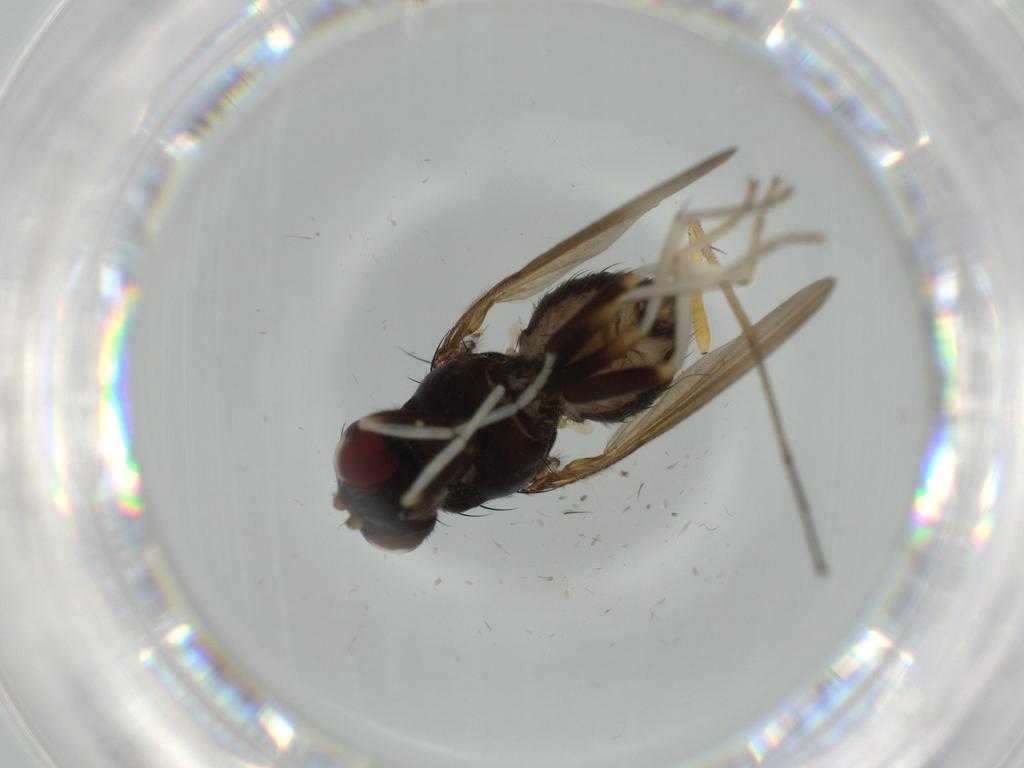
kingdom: Animalia
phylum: Arthropoda
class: Insecta
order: Diptera
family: Dolichopodidae
